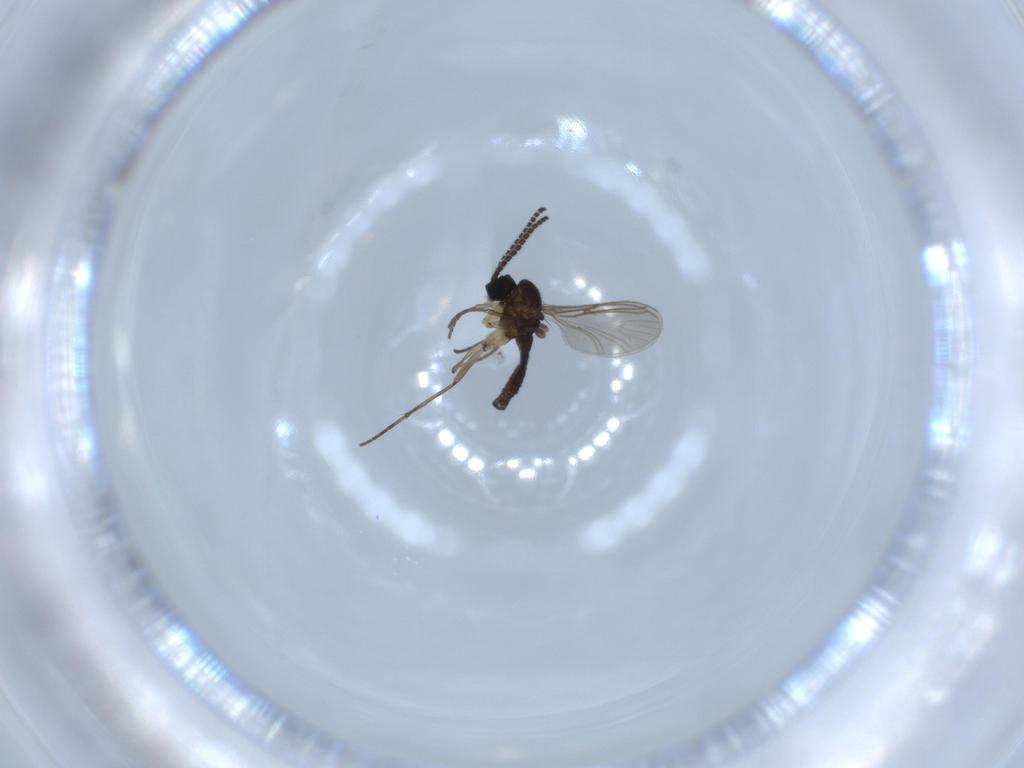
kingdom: Animalia
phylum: Arthropoda
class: Insecta
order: Diptera
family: Sciaridae
